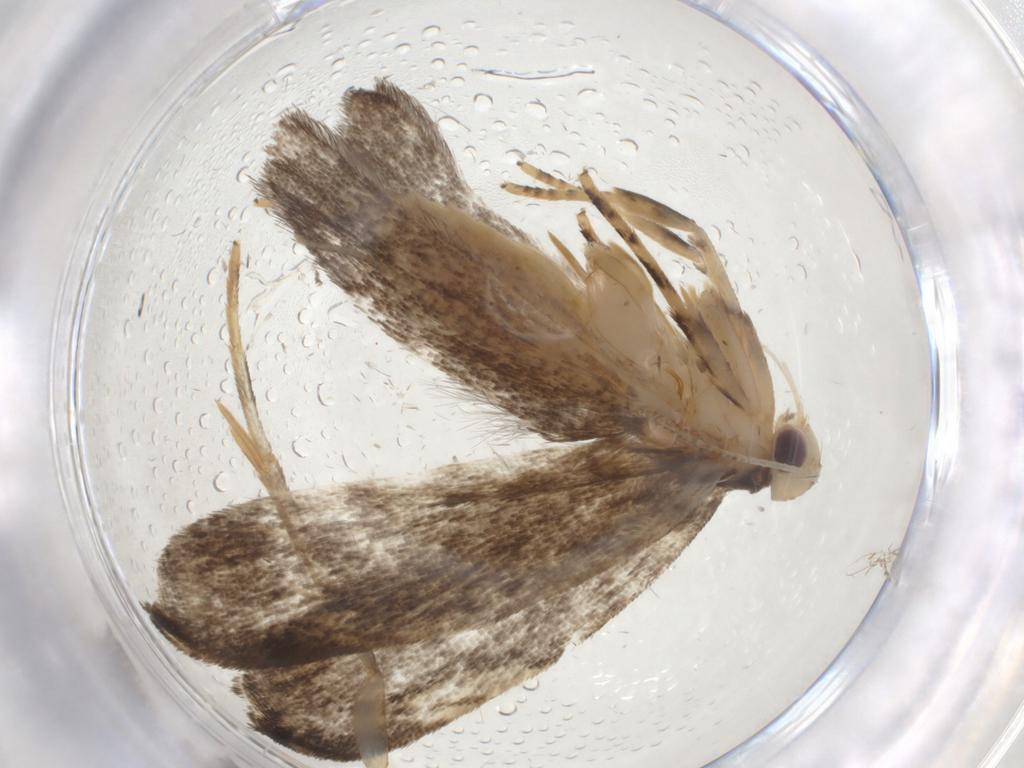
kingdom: Animalia
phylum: Arthropoda
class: Insecta
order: Lepidoptera
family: Gelechiidae
